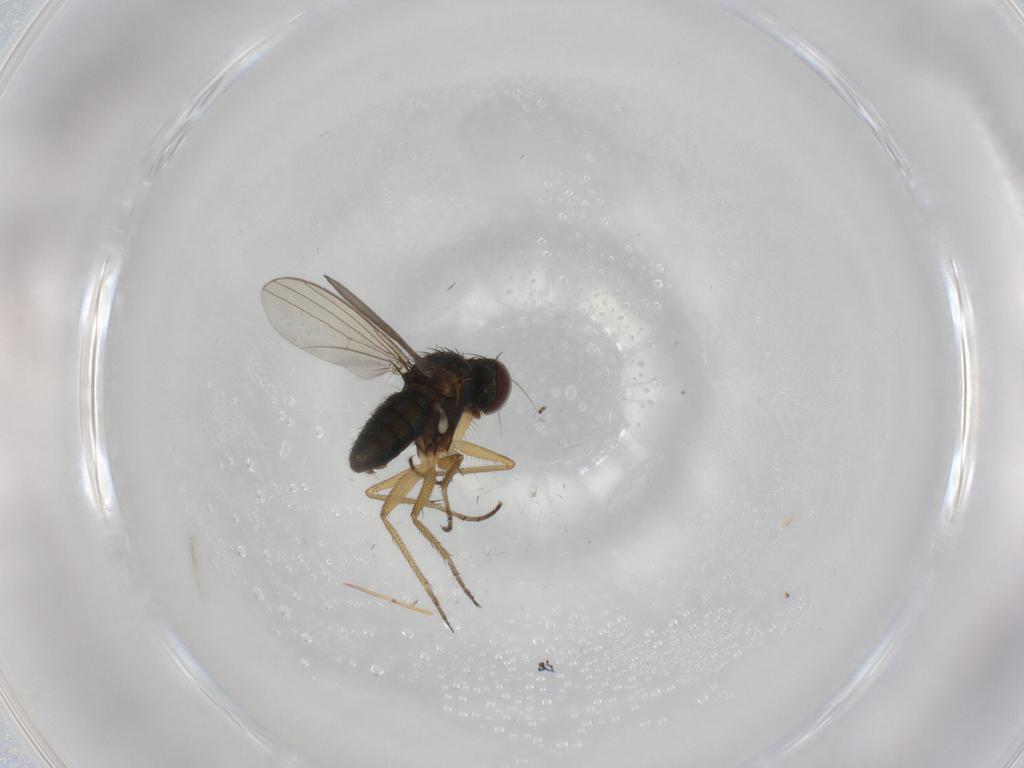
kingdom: Animalia
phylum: Arthropoda
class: Insecta
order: Diptera
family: Dolichopodidae
